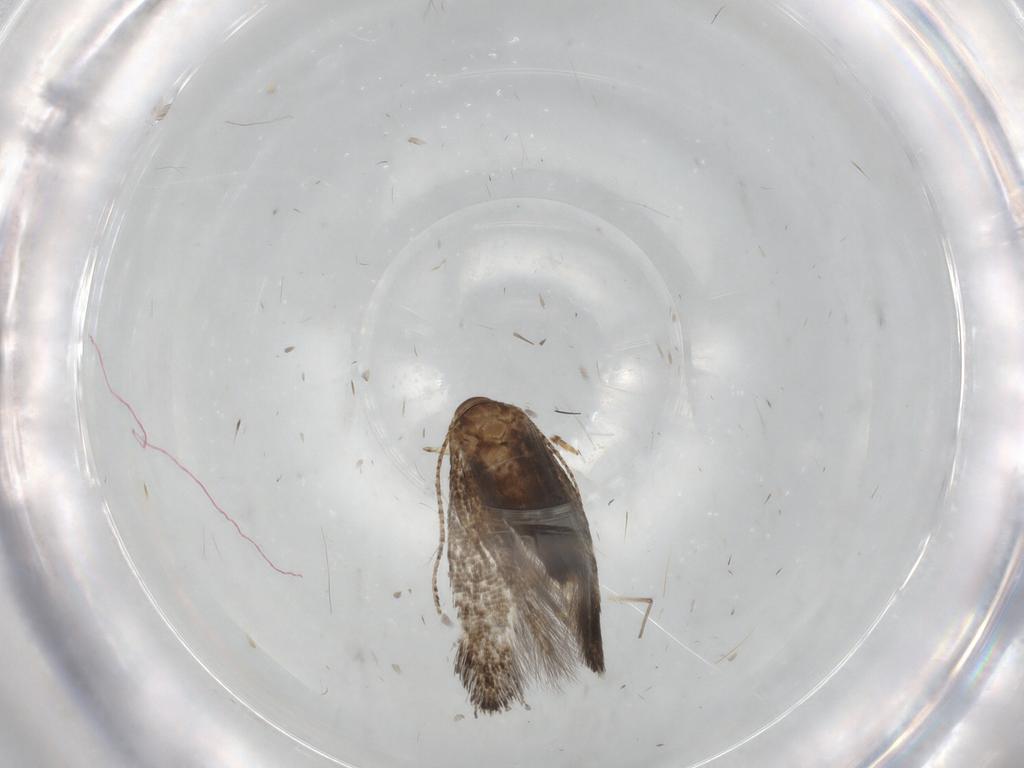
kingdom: Animalia
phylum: Arthropoda
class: Insecta
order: Lepidoptera
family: Erebidae
